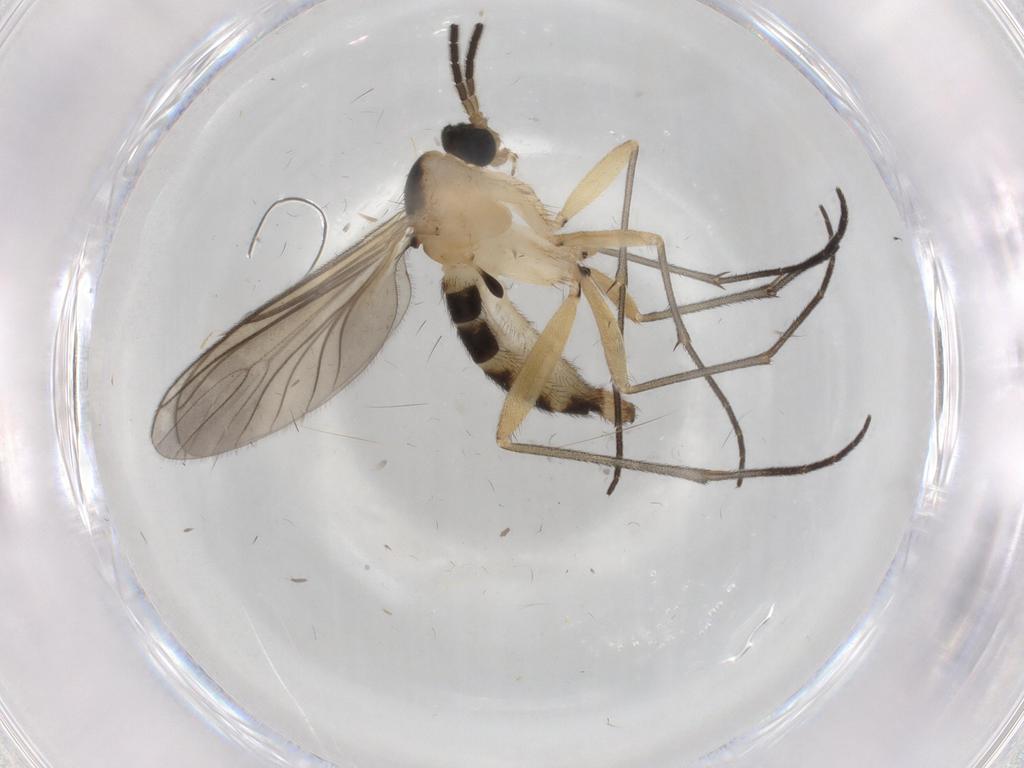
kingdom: Animalia
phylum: Arthropoda
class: Insecta
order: Diptera
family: Sciaridae
